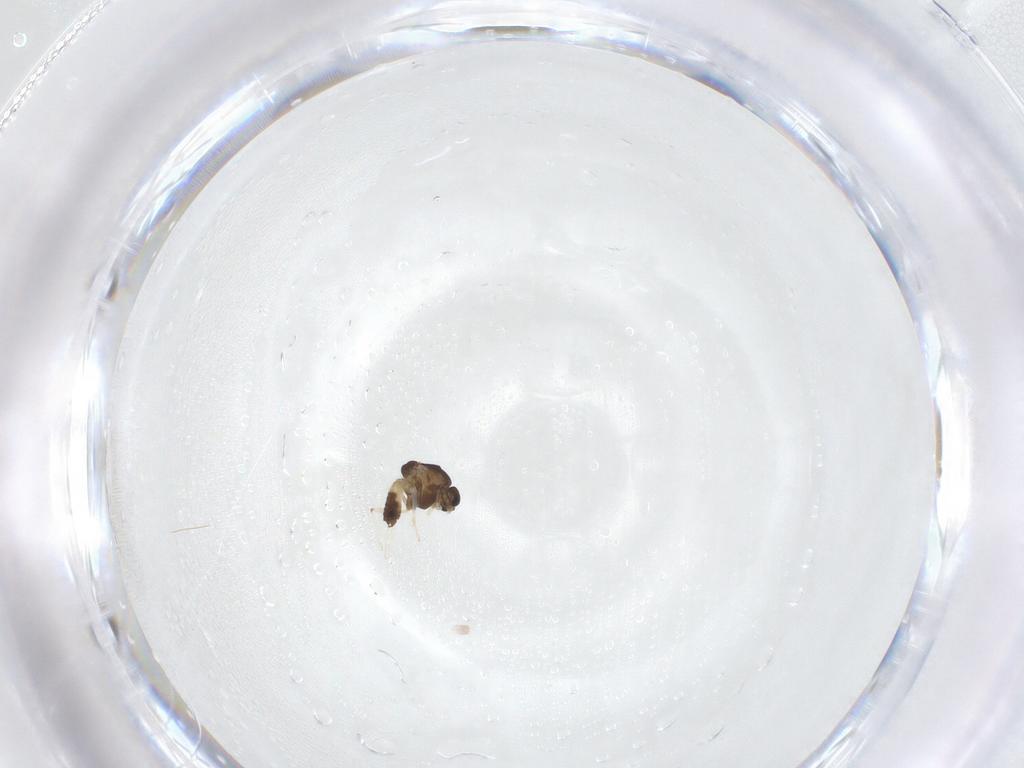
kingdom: Animalia
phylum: Arthropoda
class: Insecta
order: Diptera
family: Chironomidae
